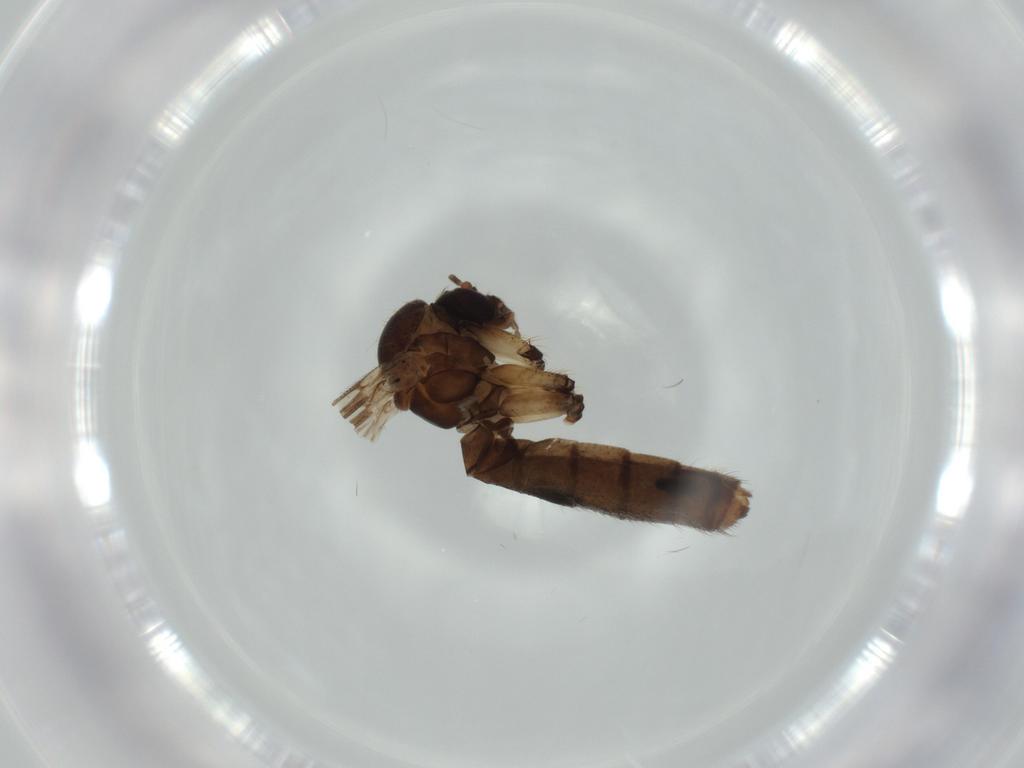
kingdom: Animalia
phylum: Arthropoda
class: Insecta
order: Diptera
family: Mycetophilidae
